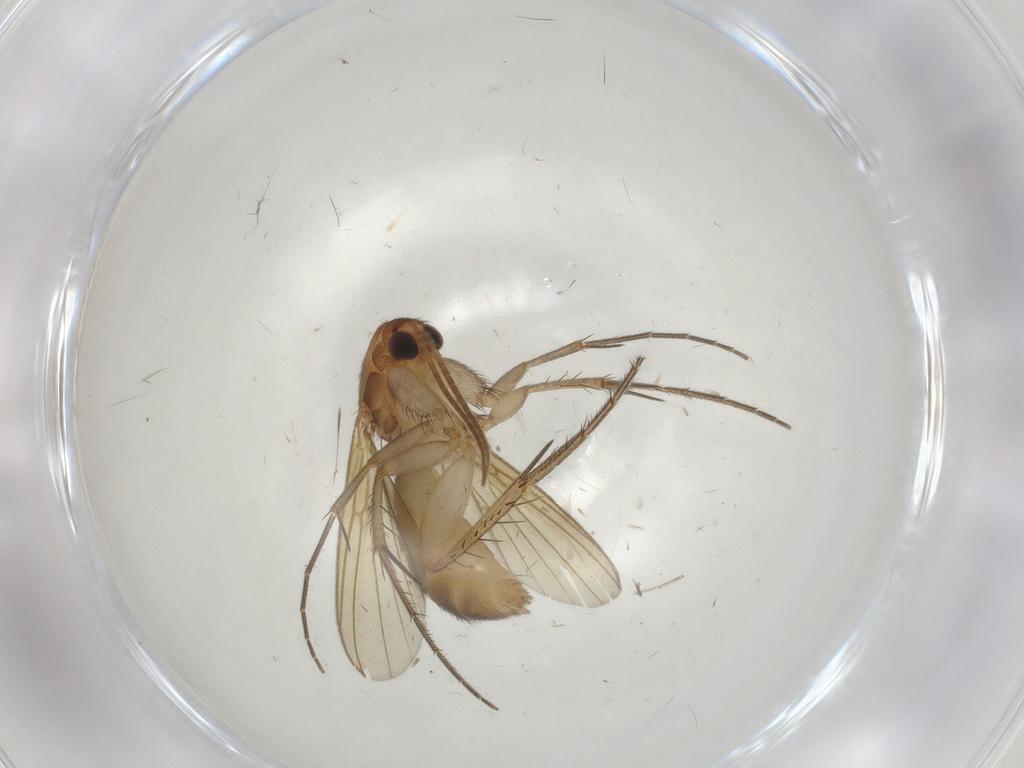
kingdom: Animalia
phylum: Arthropoda
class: Insecta
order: Diptera
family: Mycetophilidae
